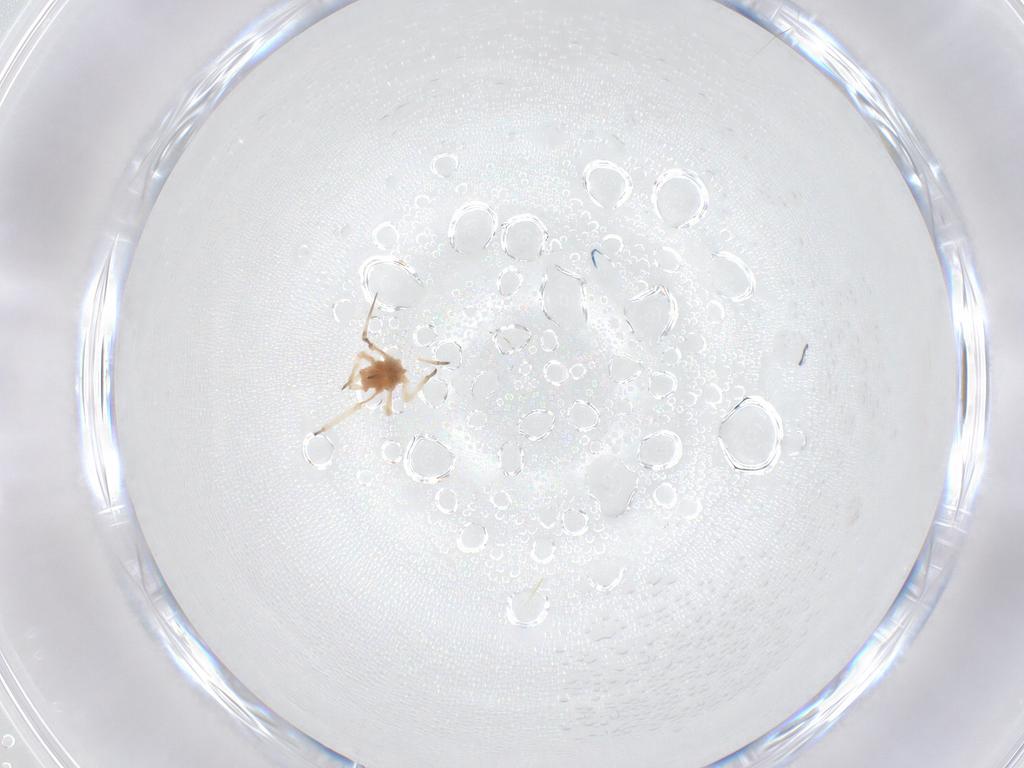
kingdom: Animalia
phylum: Arthropoda
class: Insecta
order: Hemiptera
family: Aphididae
